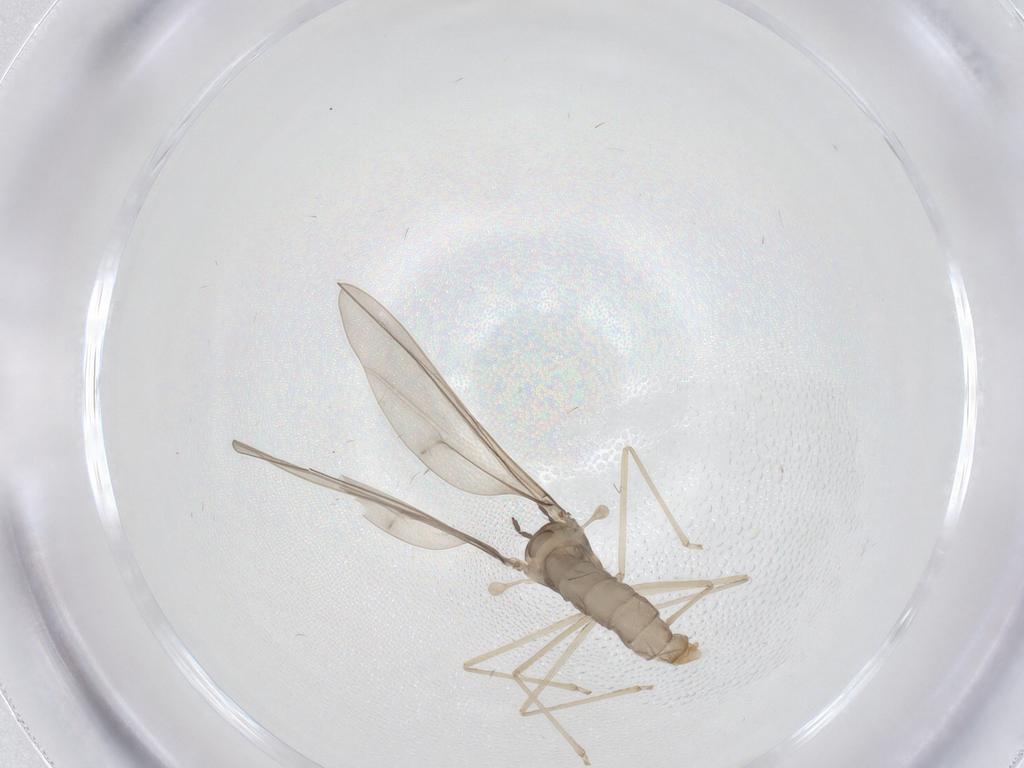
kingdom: Animalia
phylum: Arthropoda
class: Insecta
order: Diptera
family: Cecidomyiidae
